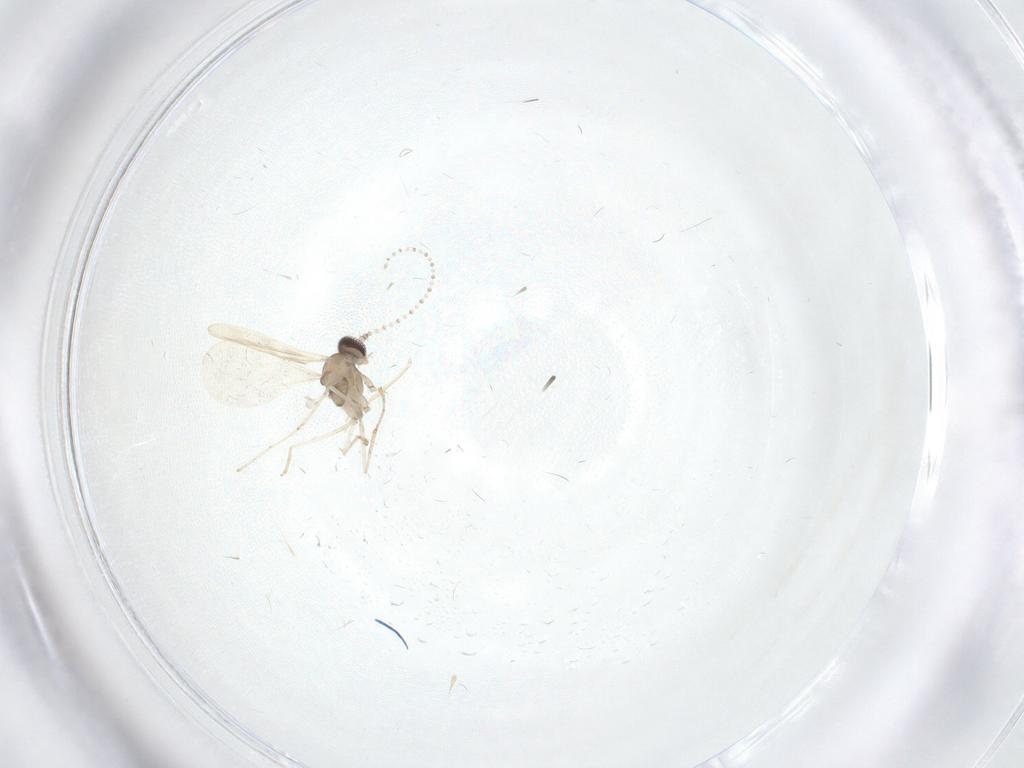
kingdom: Animalia
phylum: Arthropoda
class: Insecta
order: Diptera
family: Cecidomyiidae
